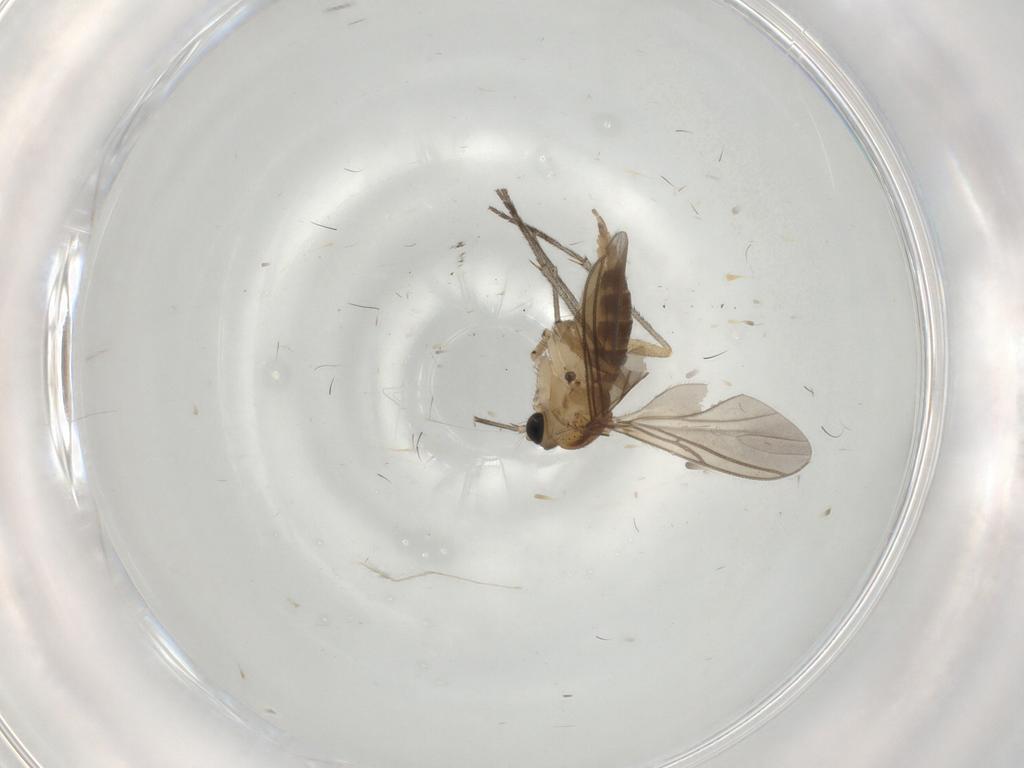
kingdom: Animalia
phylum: Arthropoda
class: Insecta
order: Diptera
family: Sciaridae
